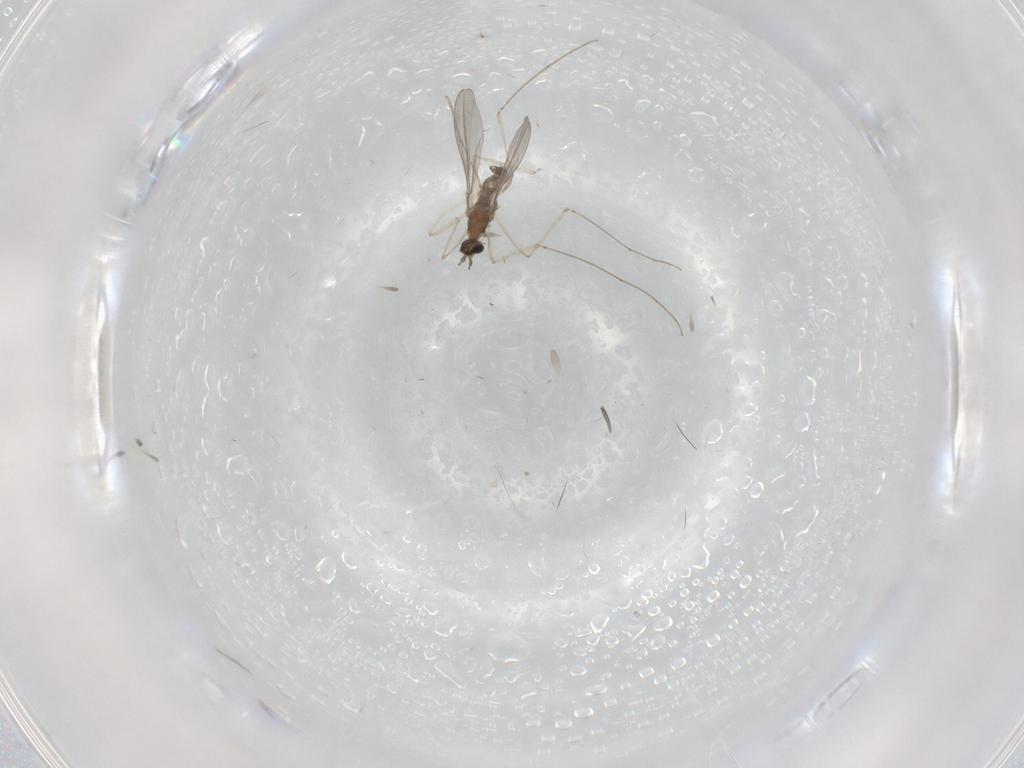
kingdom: Animalia
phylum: Arthropoda
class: Insecta
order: Diptera
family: Cecidomyiidae
